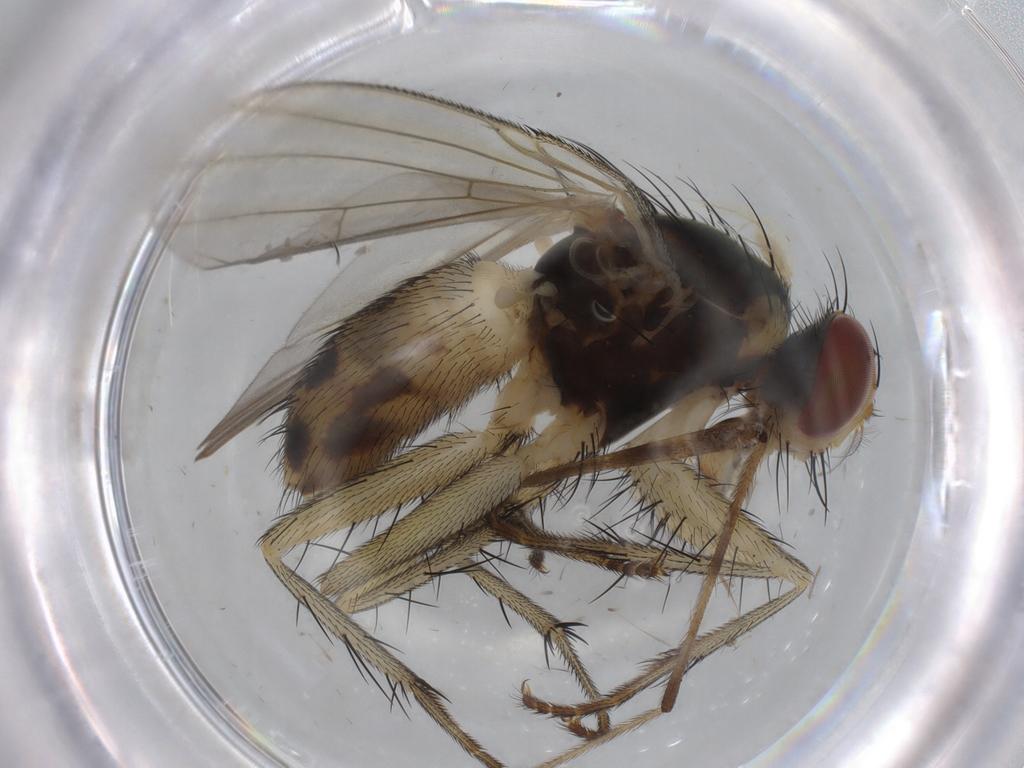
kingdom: Animalia
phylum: Arthropoda
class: Insecta
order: Diptera
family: Muscidae
